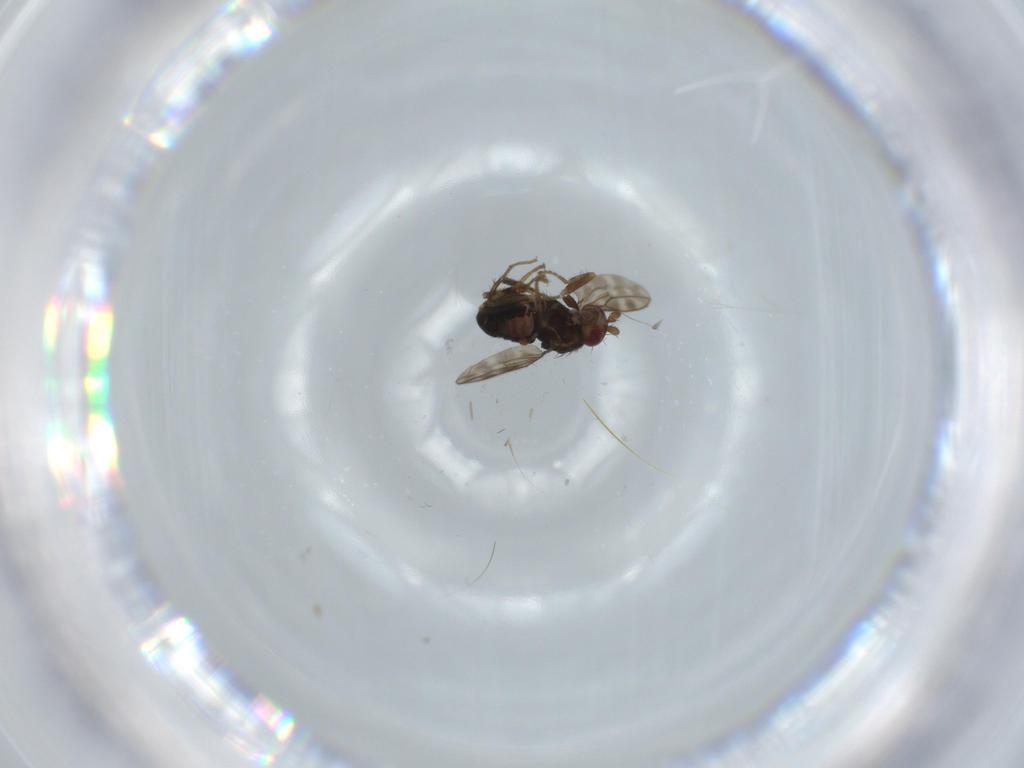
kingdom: Animalia
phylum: Arthropoda
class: Insecta
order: Diptera
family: Sphaeroceridae
